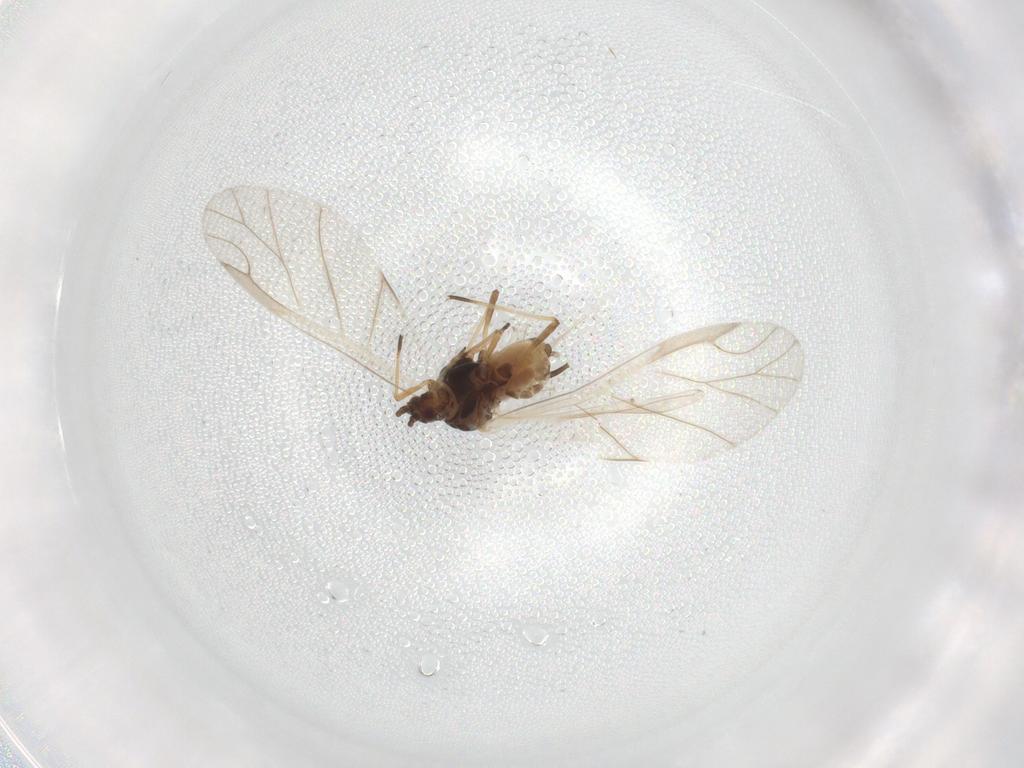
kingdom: Animalia
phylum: Arthropoda
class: Insecta
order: Hemiptera
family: Aphididae
